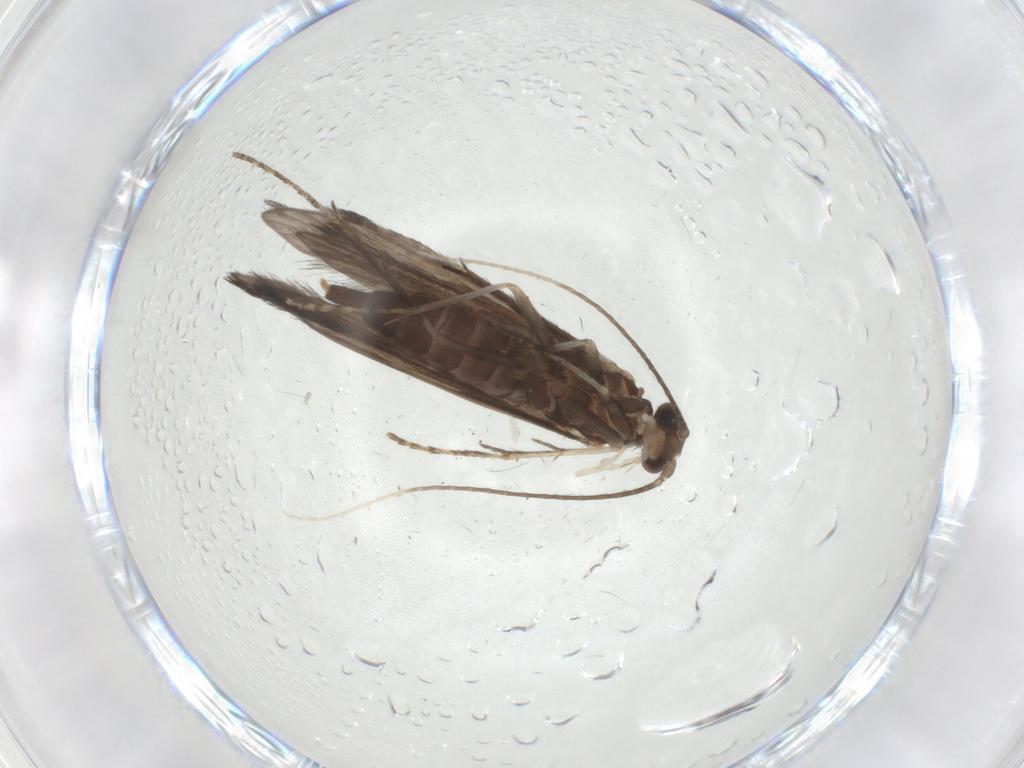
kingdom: Animalia
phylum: Arthropoda
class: Insecta
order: Trichoptera
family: Xiphocentronidae
